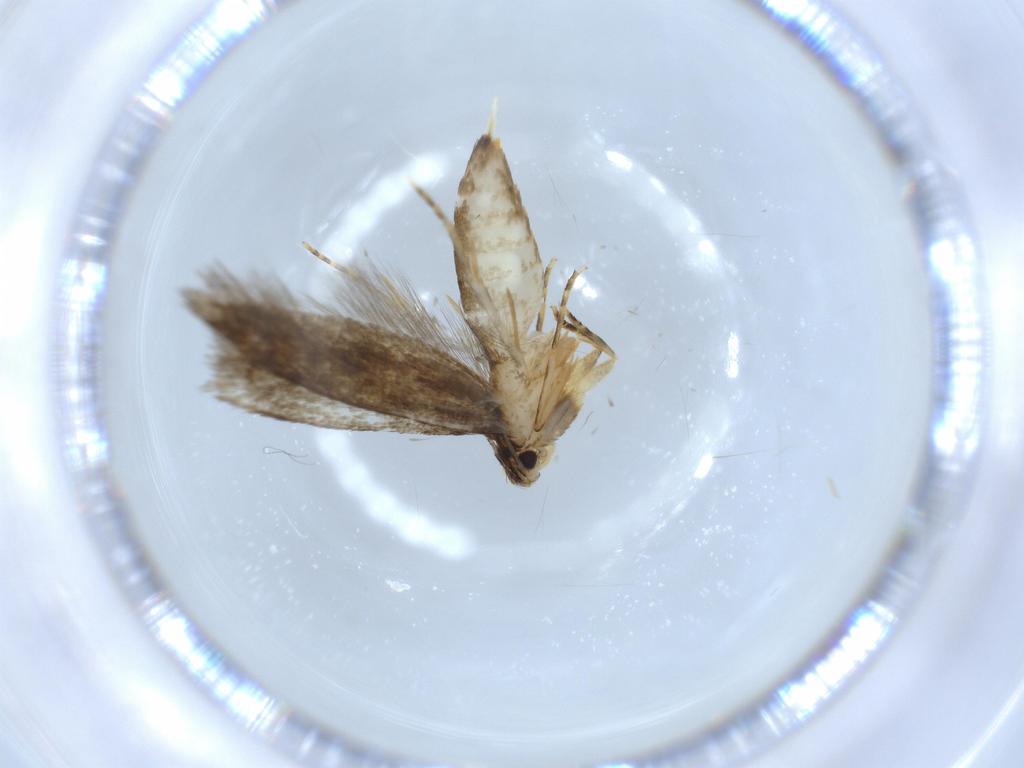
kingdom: Animalia
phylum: Arthropoda
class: Insecta
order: Lepidoptera
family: Tineidae
